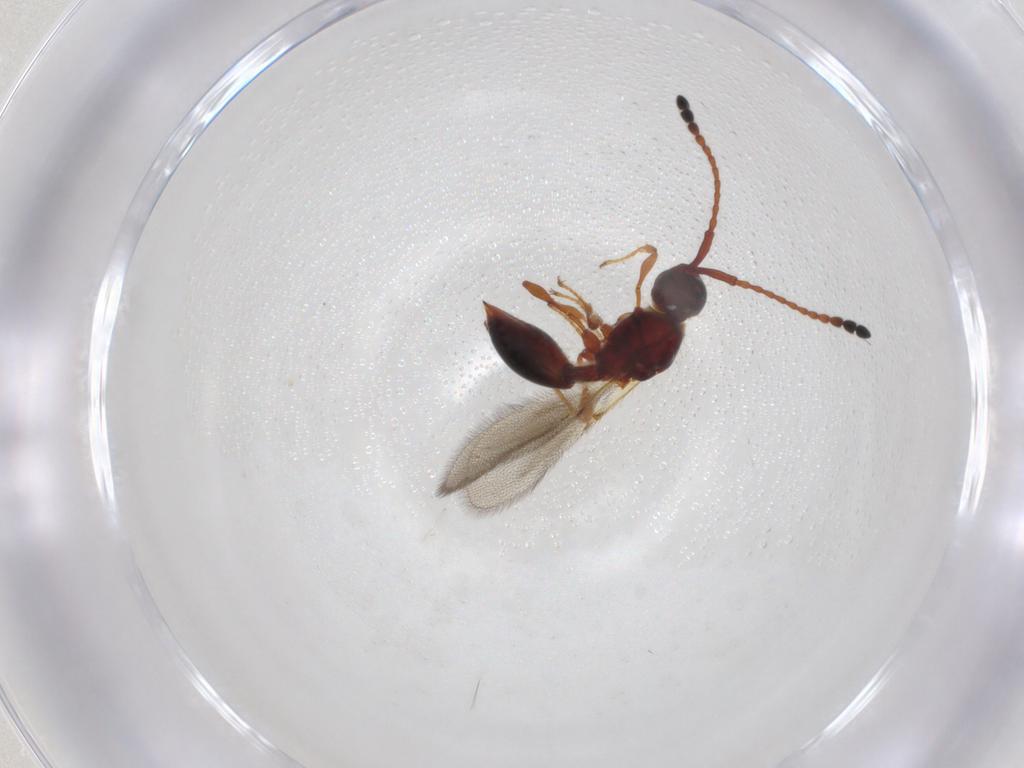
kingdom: Animalia
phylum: Arthropoda
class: Insecta
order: Hymenoptera
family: Diapriidae
